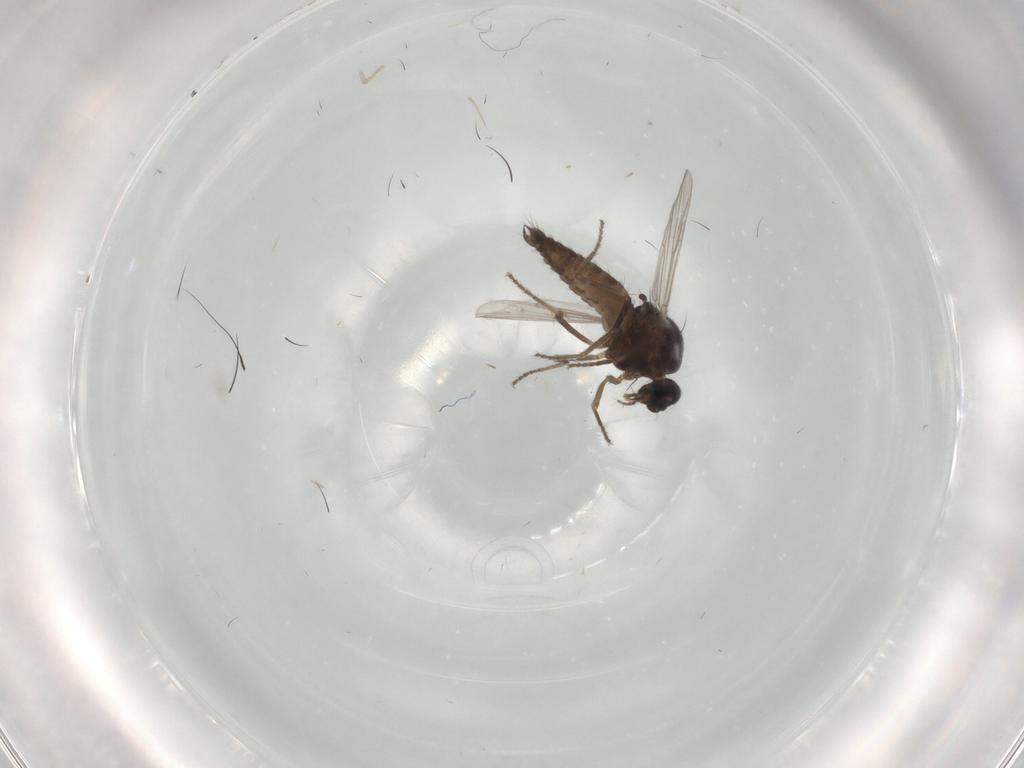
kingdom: Animalia
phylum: Arthropoda
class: Insecta
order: Diptera
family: Ceratopogonidae
